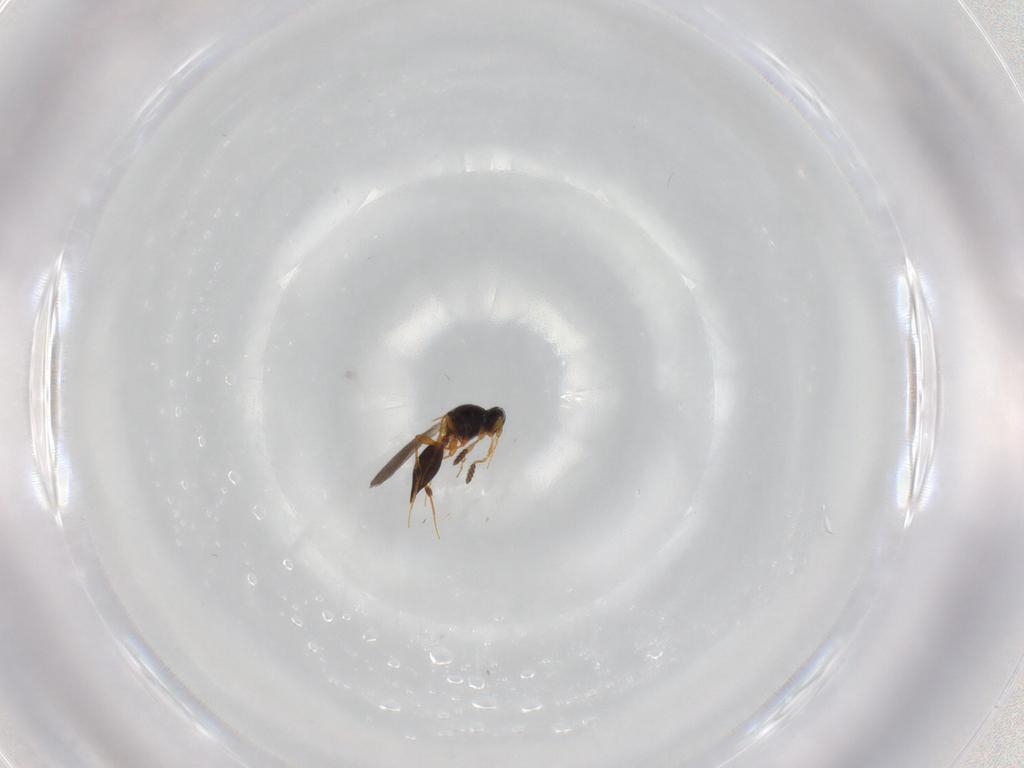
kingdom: Animalia
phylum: Arthropoda
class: Insecta
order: Hymenoptera
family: Platygastridae
